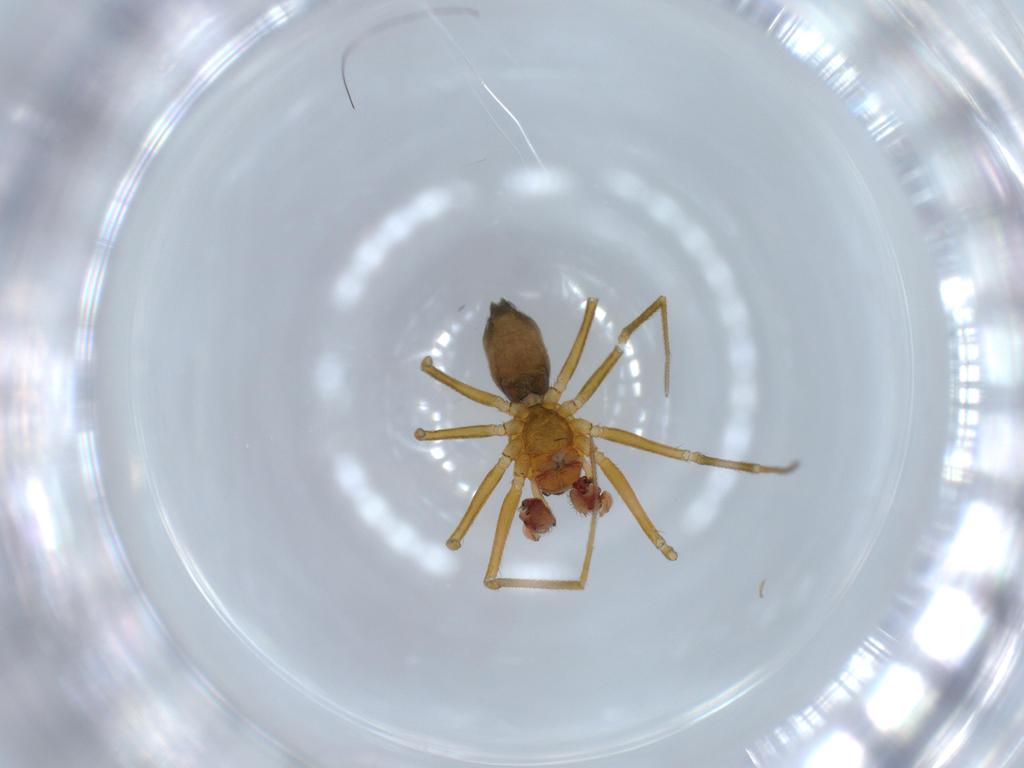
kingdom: Animalia
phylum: Arthropoda
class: Arachnida
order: Araneae
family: Linyphiidae
